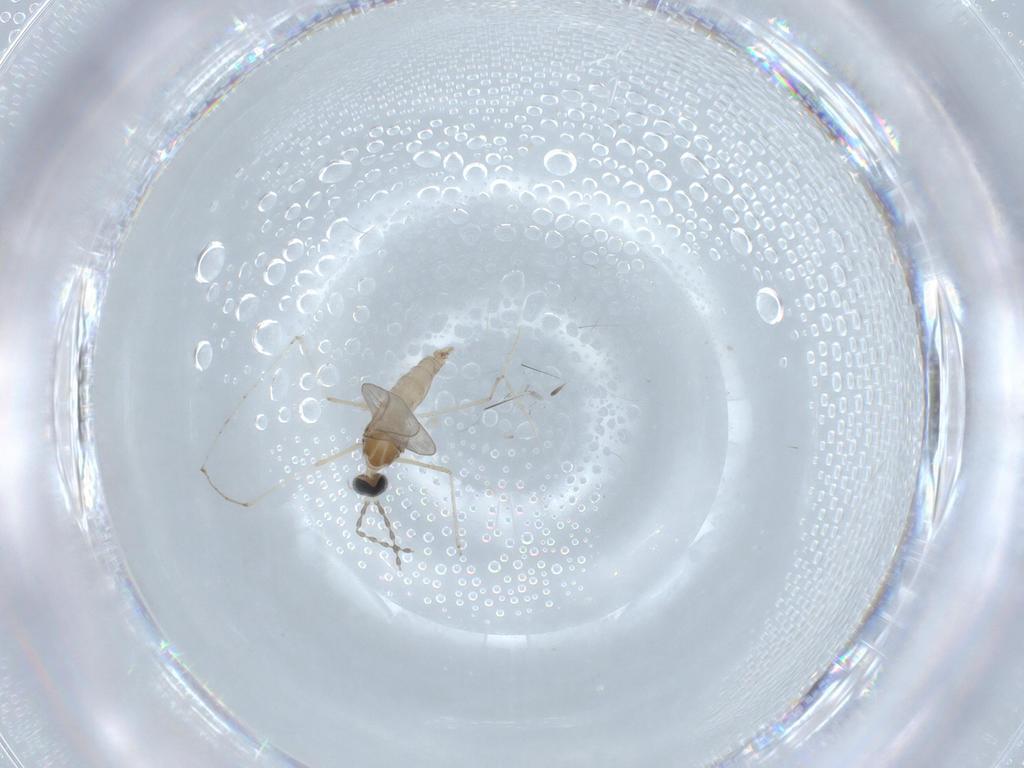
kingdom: Animalia
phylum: Arthropoda
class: Insecta
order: Diptera
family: Cecidomyiidae
